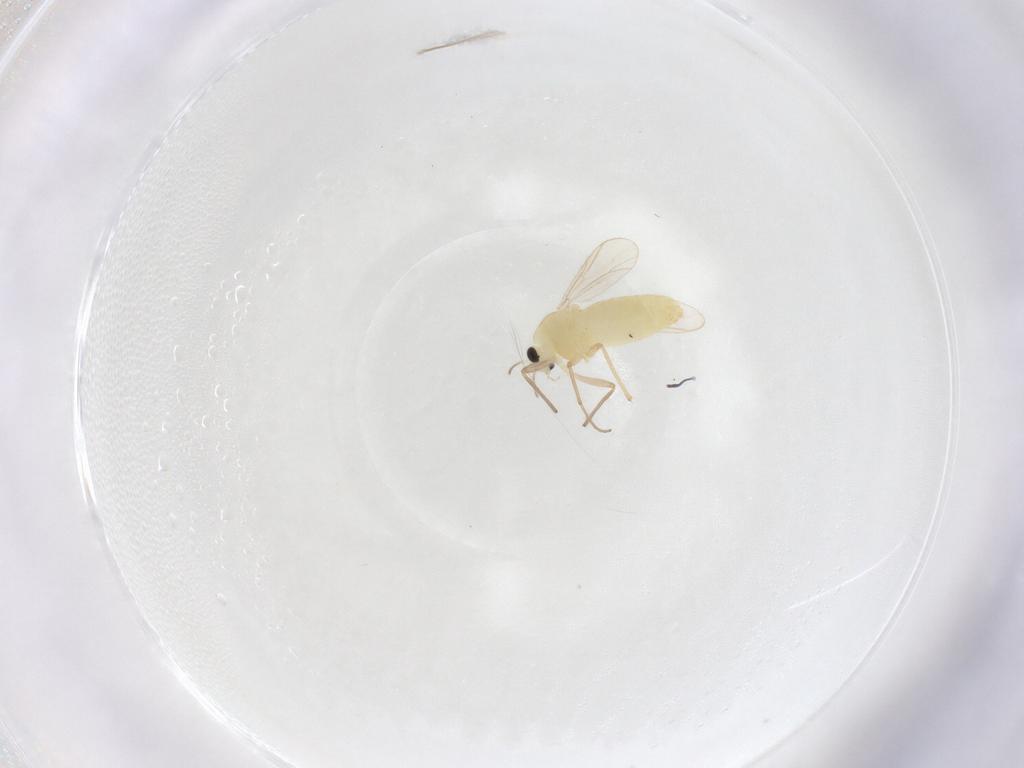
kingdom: Animalia
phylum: Arthropoda
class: Insecta
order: Diptera
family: Chironomidae
